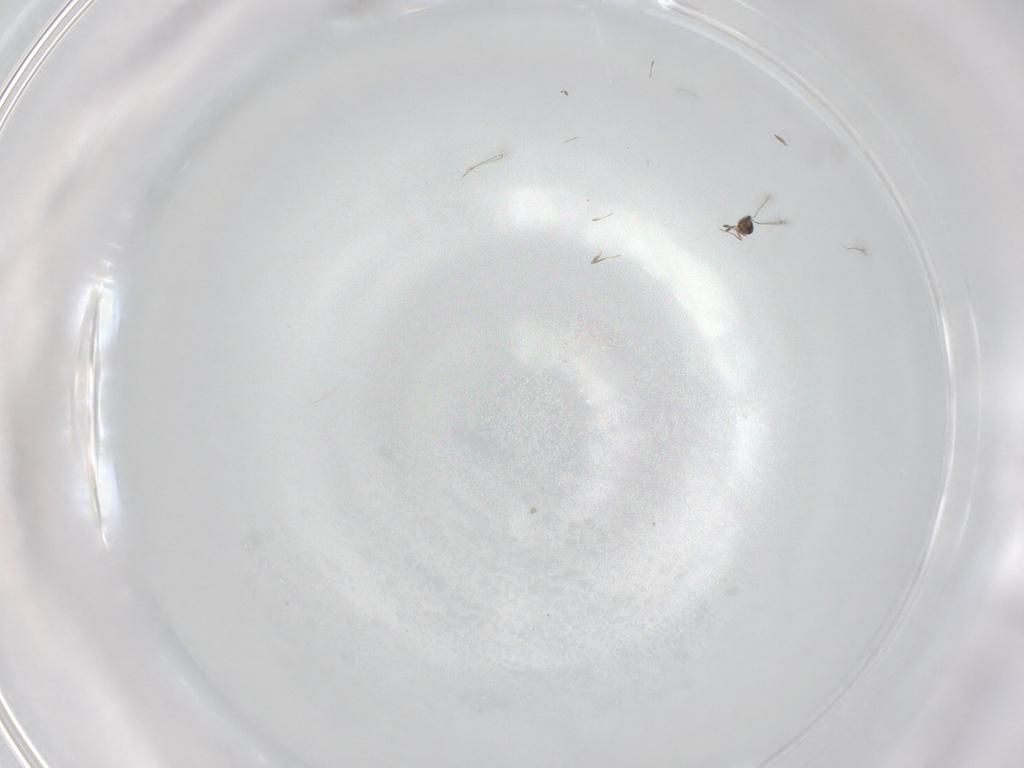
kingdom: Animalia
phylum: Arthropoda
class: Insecta
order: Hymenoptera
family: Mymaridae
